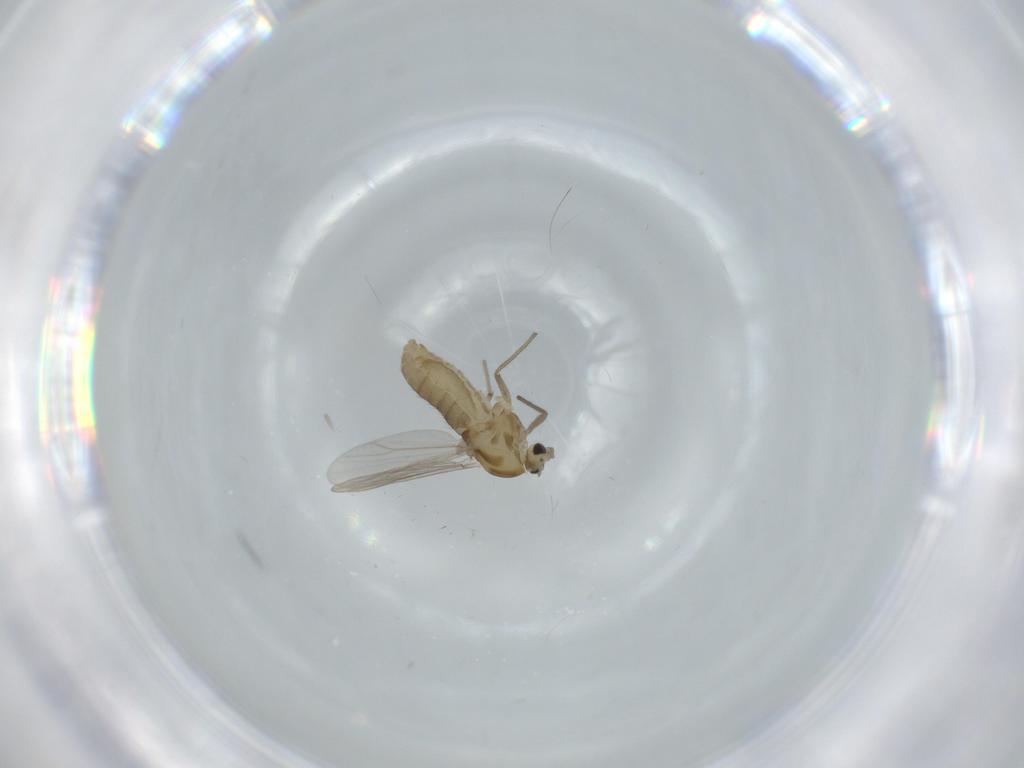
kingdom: Animalia
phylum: Arthropoda
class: Insecta
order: Diptera
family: Chironomidae
